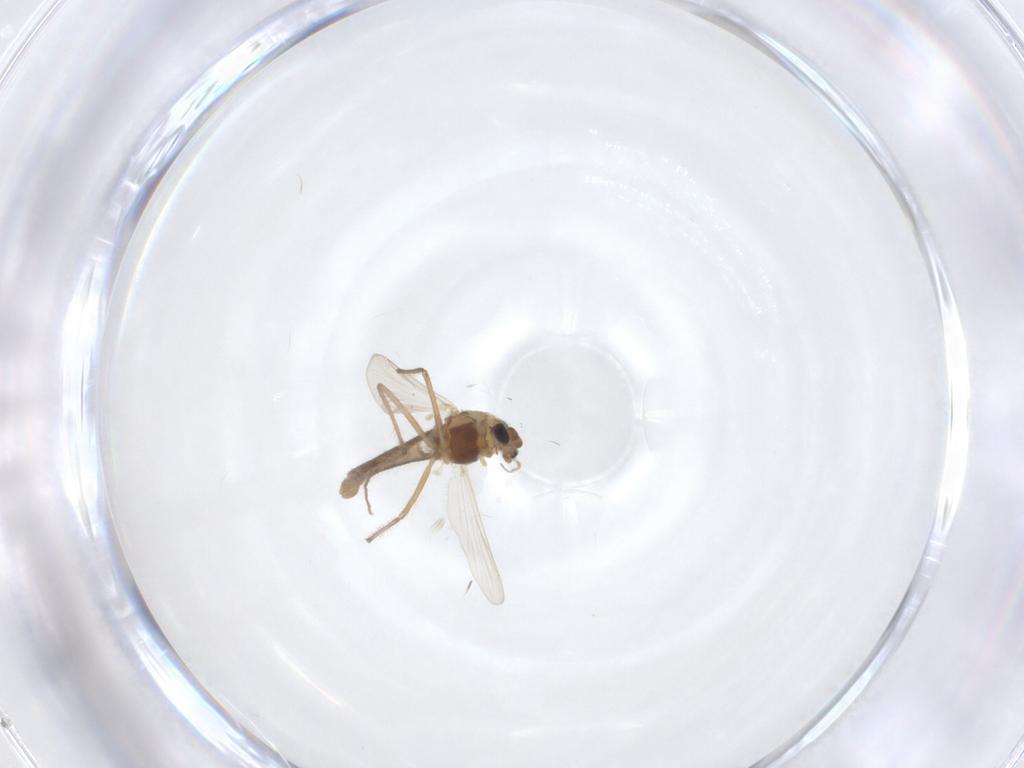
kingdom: Animalia
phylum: Arthropoda
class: Insecta
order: Diptera
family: Chironomidae
